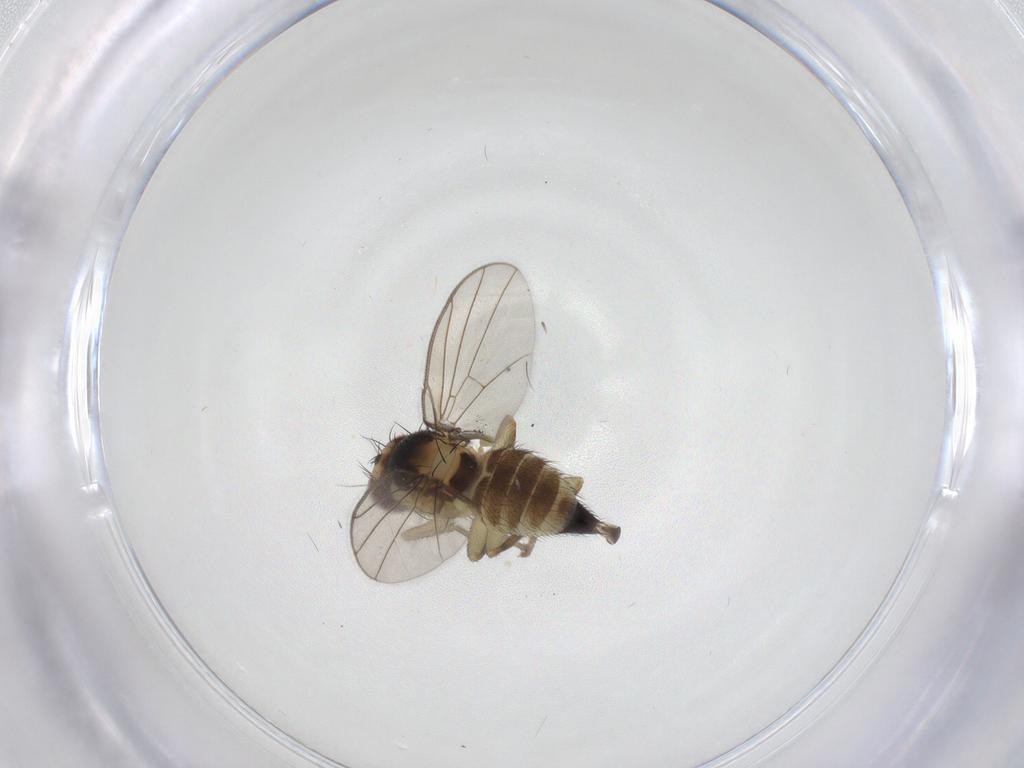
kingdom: Animalia
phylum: Arthropoda
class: Insecta
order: Diptera
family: Agromyzidae
